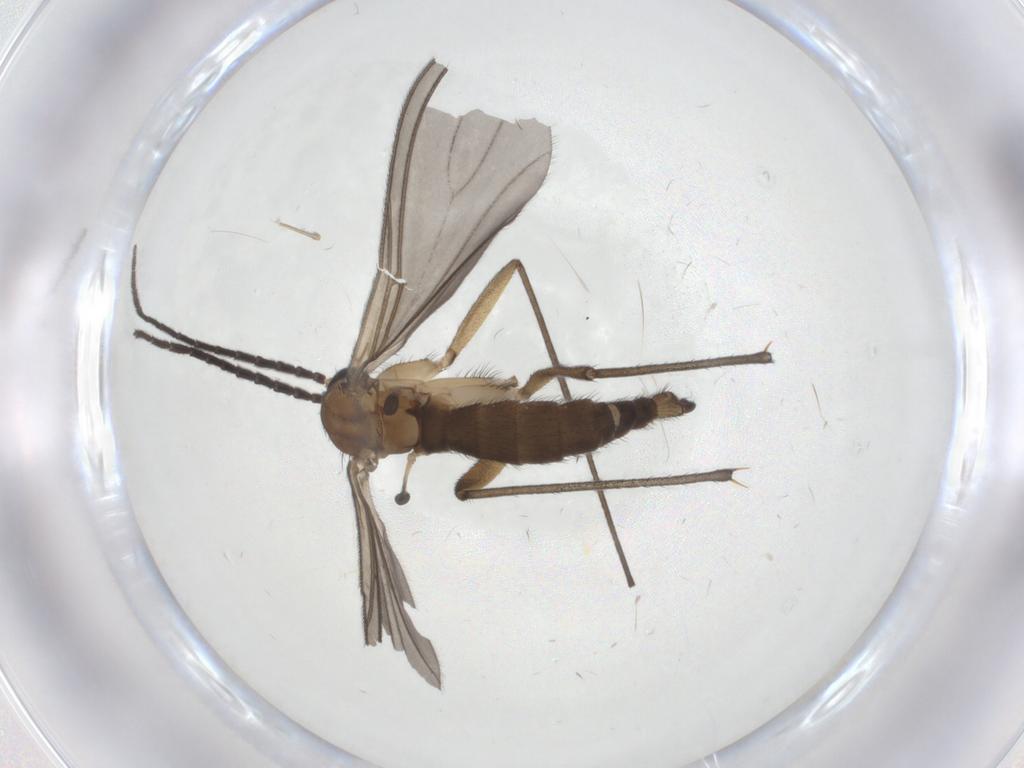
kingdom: Animalia
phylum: Arthropoda
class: Insecta
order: Diptera
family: Sciaridae
